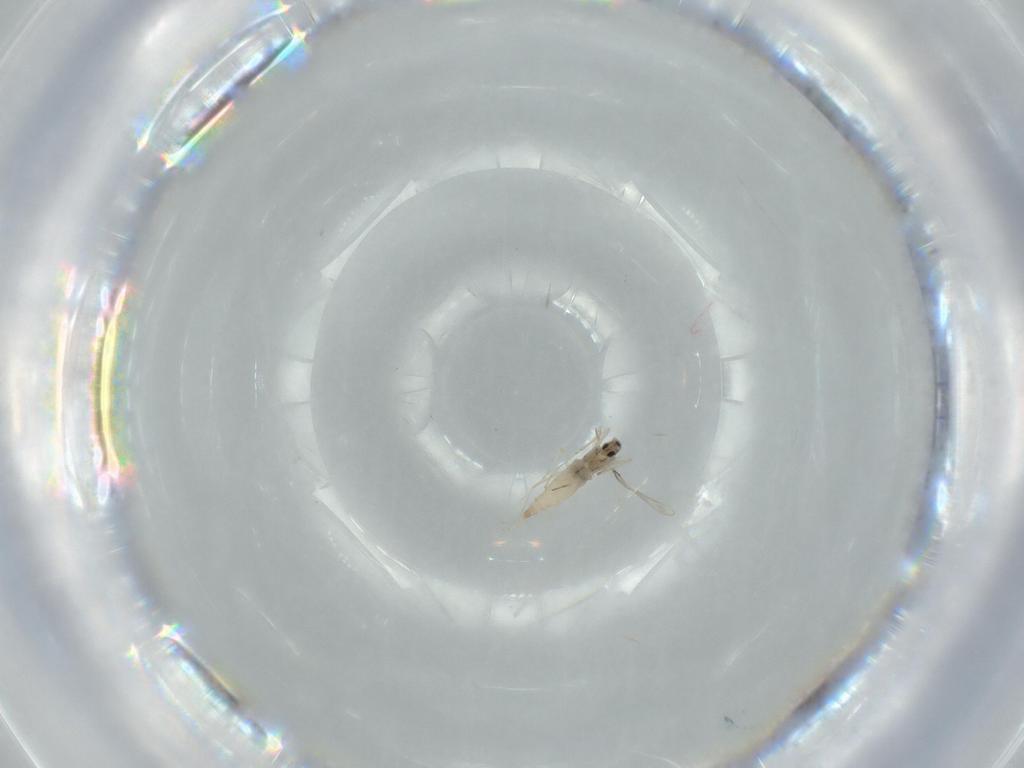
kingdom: Animalia
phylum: Arthropoda
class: Insecta
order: Diptera
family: Cecidomyiidae
